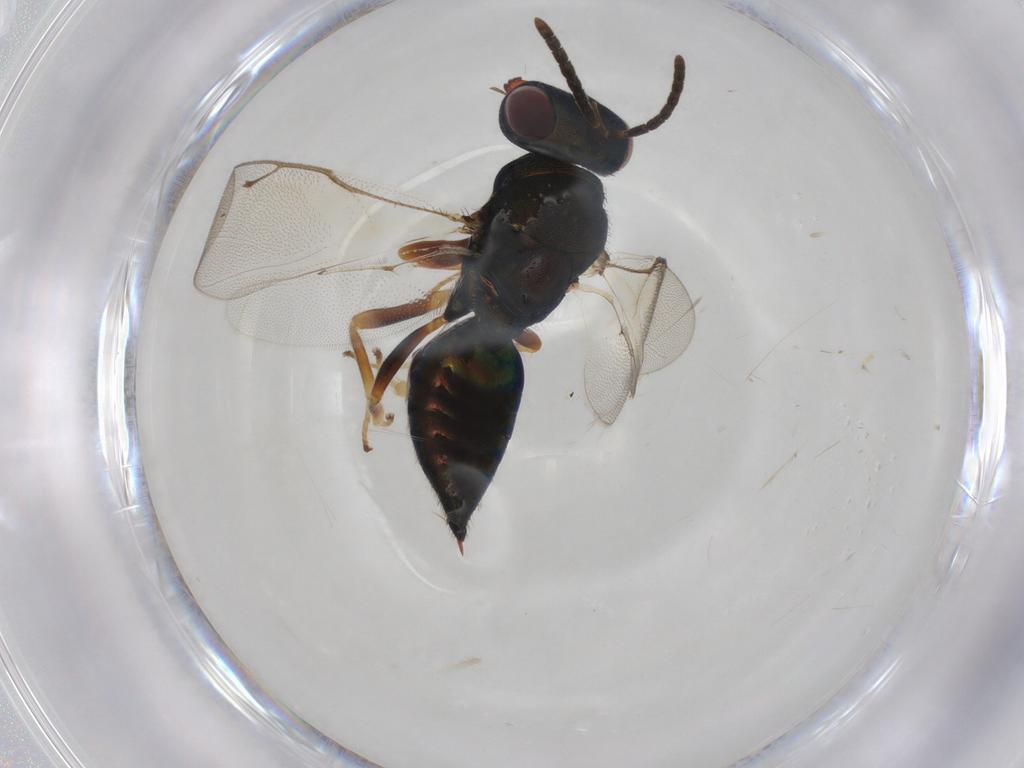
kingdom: Animalia
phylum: Arthropoda
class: Insecta
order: Hymenoptera
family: Pteromalidae
